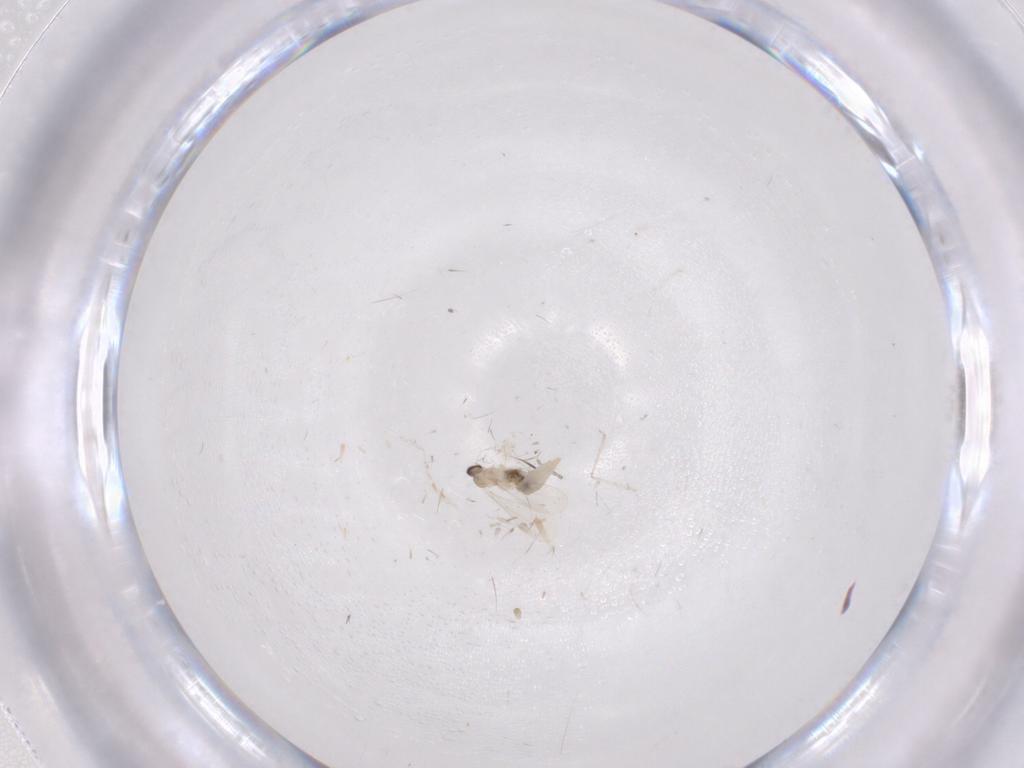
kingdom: Animalia
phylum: Arthropoda
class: Insecta
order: Diptera
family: Cecidomyiidae
